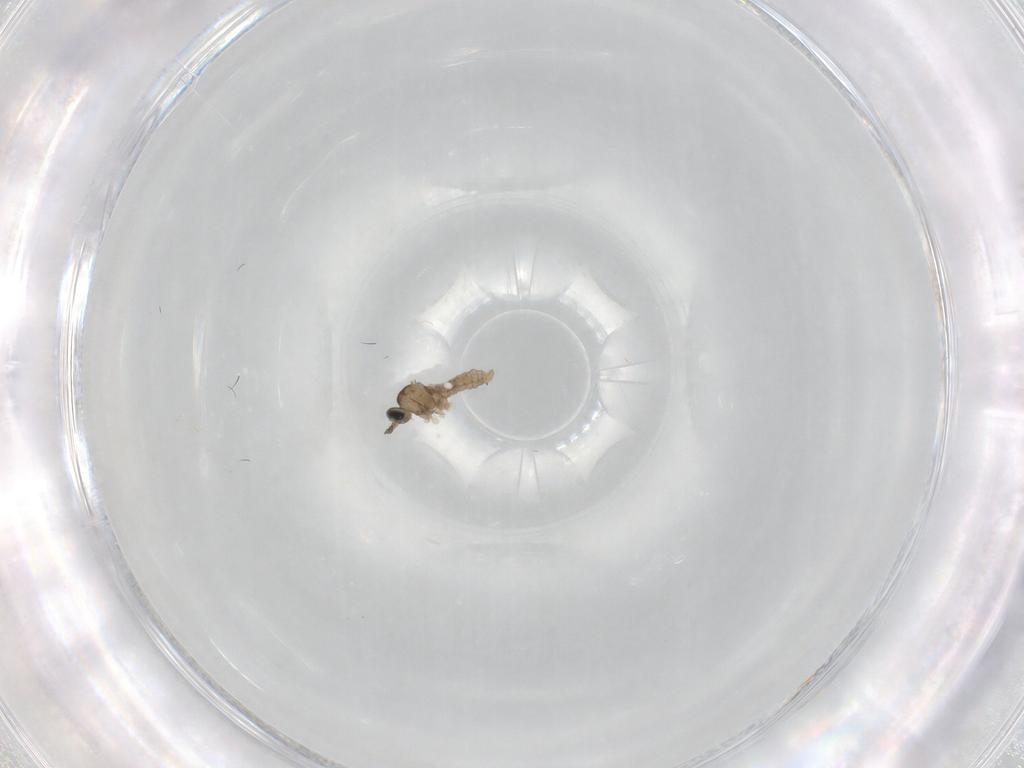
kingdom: Animalia
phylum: Arthropoda
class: Insecta
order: Diptera
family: Cecidomyiidae
